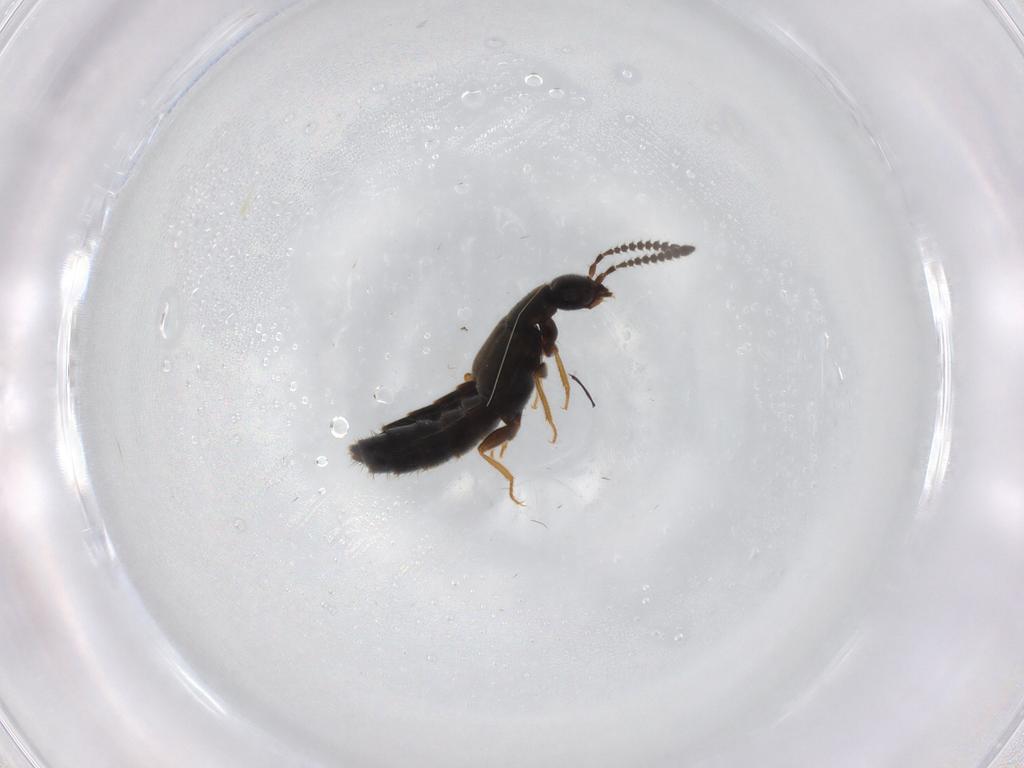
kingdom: Animalia
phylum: Arthropoda
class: Insecta
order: Coleoptera
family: Staphylinidae
